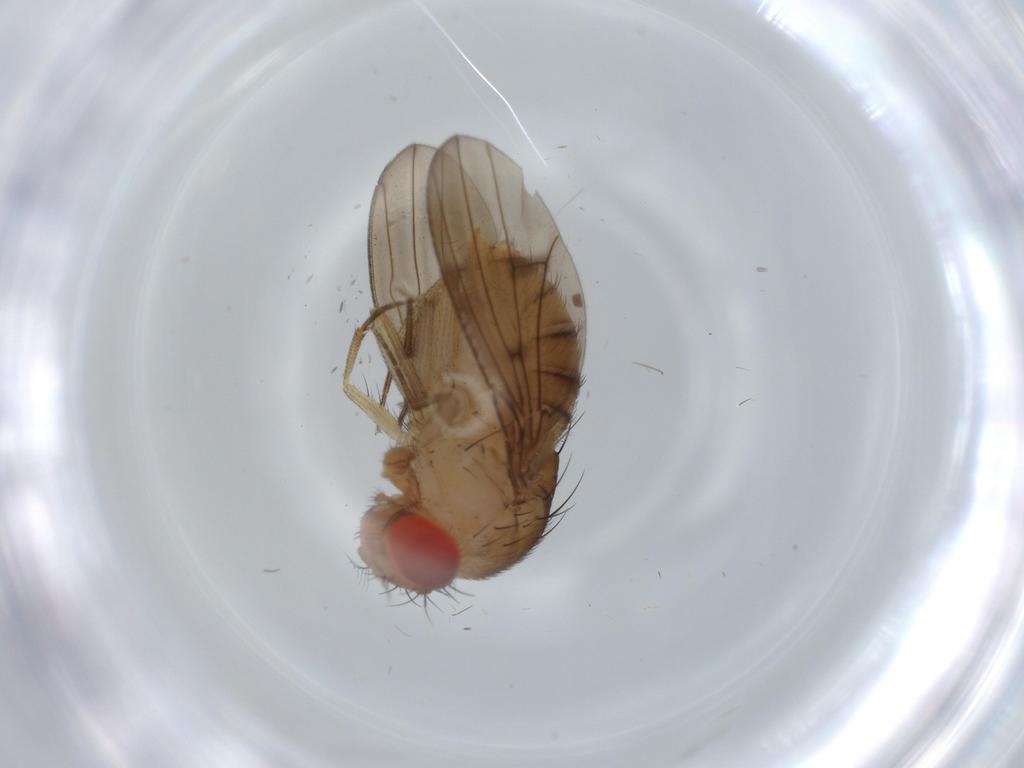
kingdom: Animalia
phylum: Arthropoda
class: Insecta
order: Diptera
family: Drosophilidae
